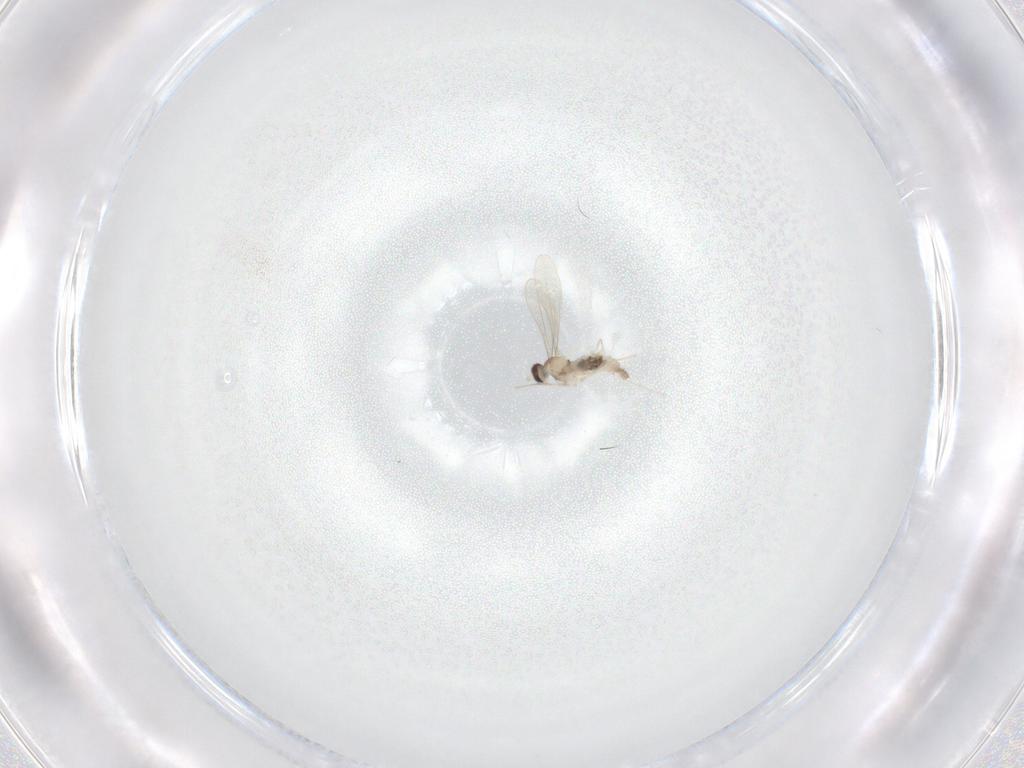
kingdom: Animalia
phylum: Arthropoda
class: Insecta
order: Diptera
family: Cecidomyiidae
